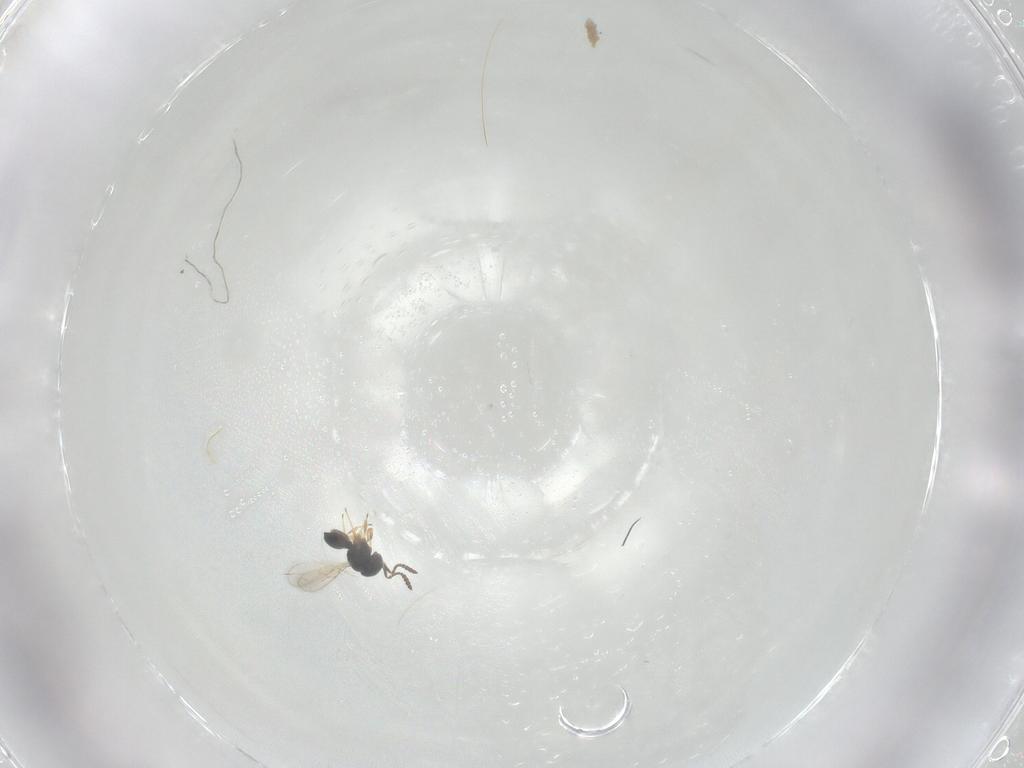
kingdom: Animalia
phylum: Arthropoda
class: Insecta
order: Hymenoptera
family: Scelionidae
